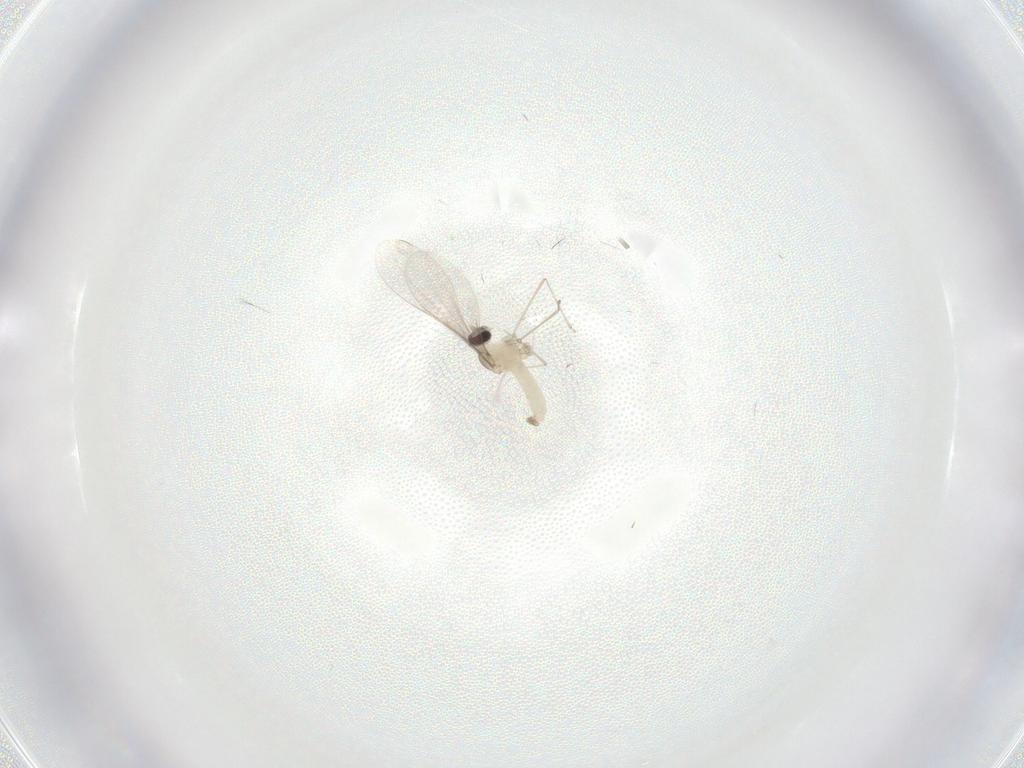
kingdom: Animalia
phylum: Arthropoda
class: Insecta
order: Diptera
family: Cecidomyiidae
